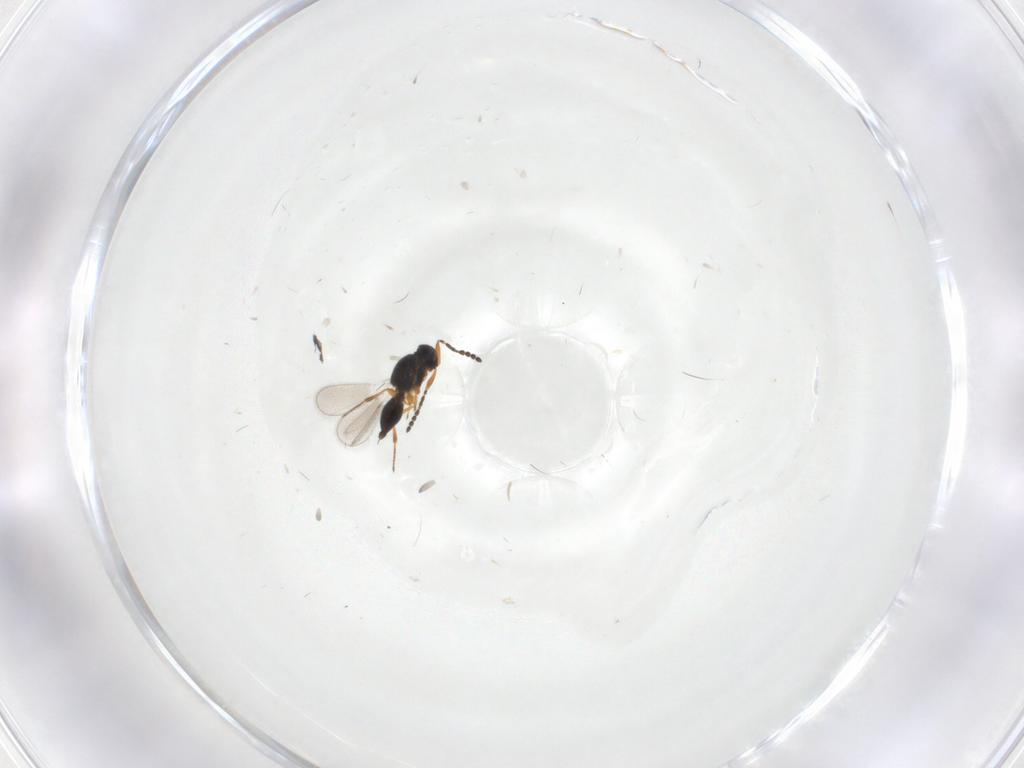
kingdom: Animalia
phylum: Arthropoda
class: Insecta
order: Hymenoptera
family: Platygastridae
